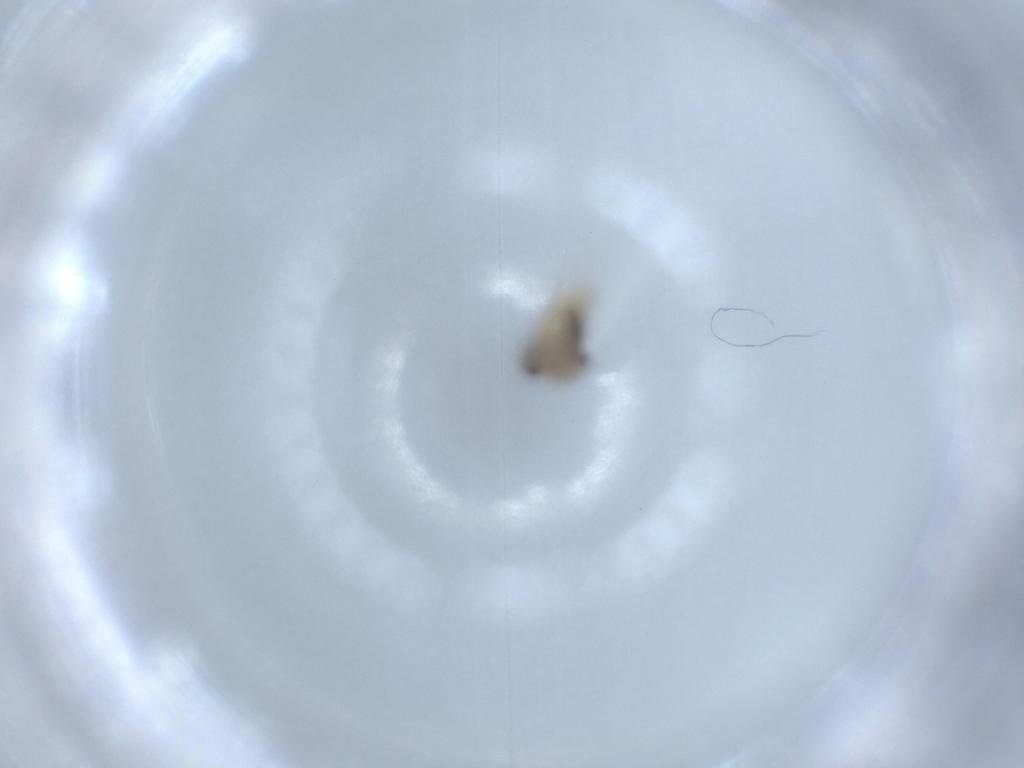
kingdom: Animalia
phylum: Arthropoda
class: Insecta
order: Diptera
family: Ceratopogonidae
